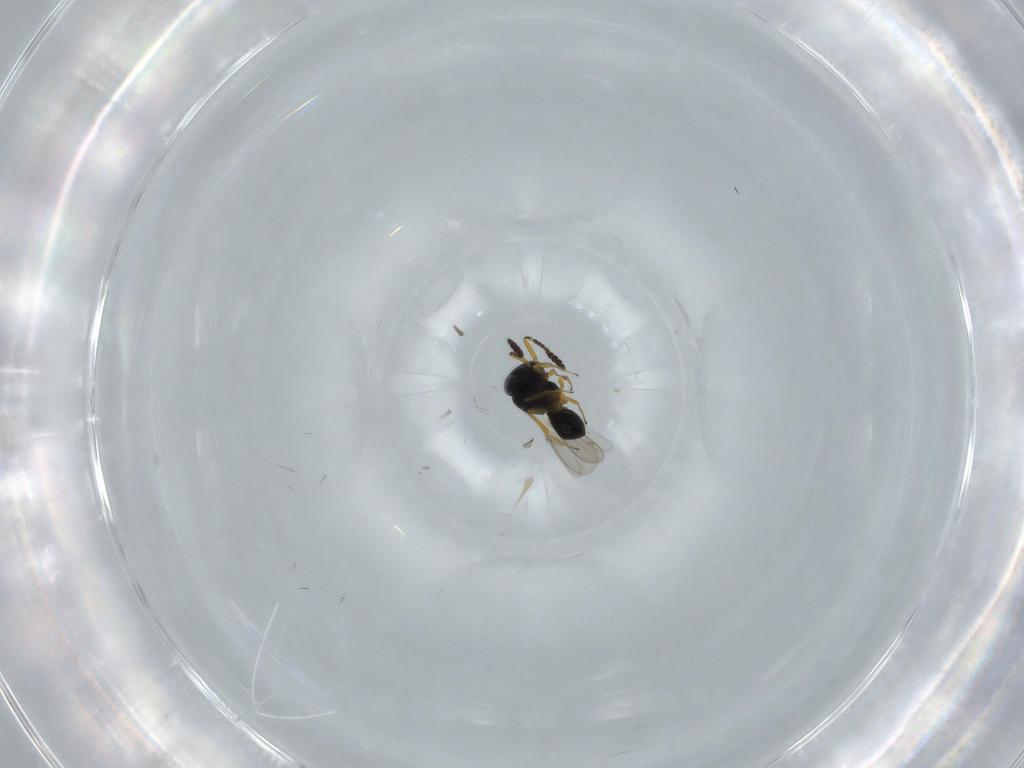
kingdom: Animalia
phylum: Arthropoda
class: Insecta
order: Hymenoptera
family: Scelionidae
